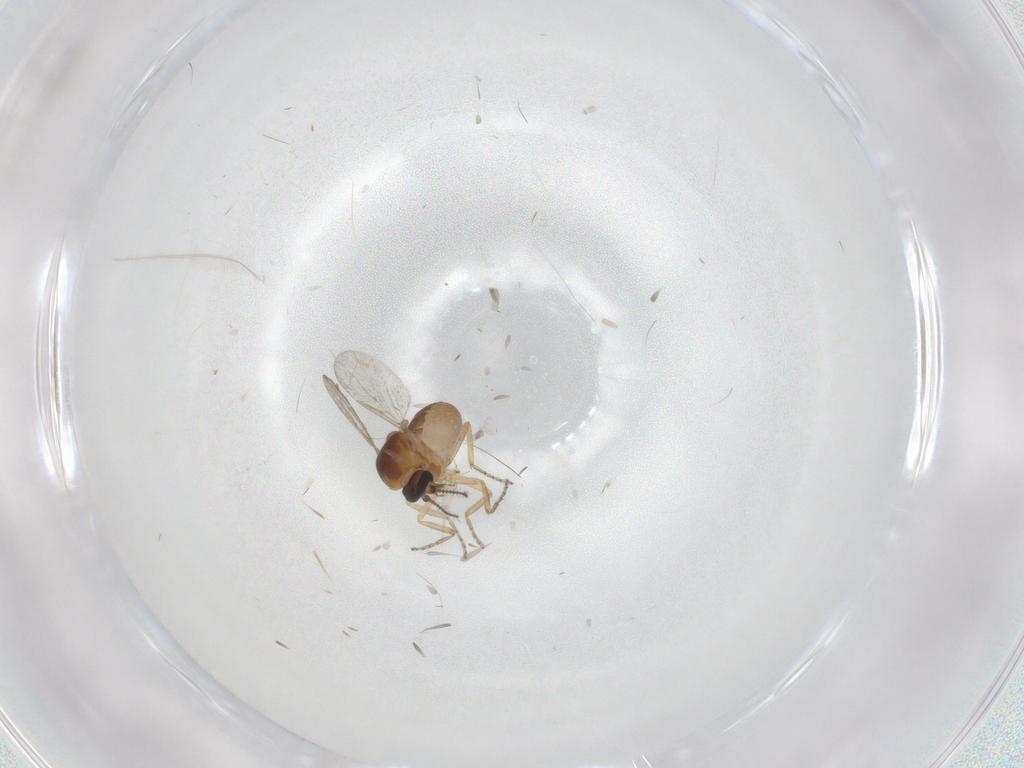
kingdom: Animalia
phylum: Arthropoda
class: Insecta
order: Diptera
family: Ceratopogonidae
